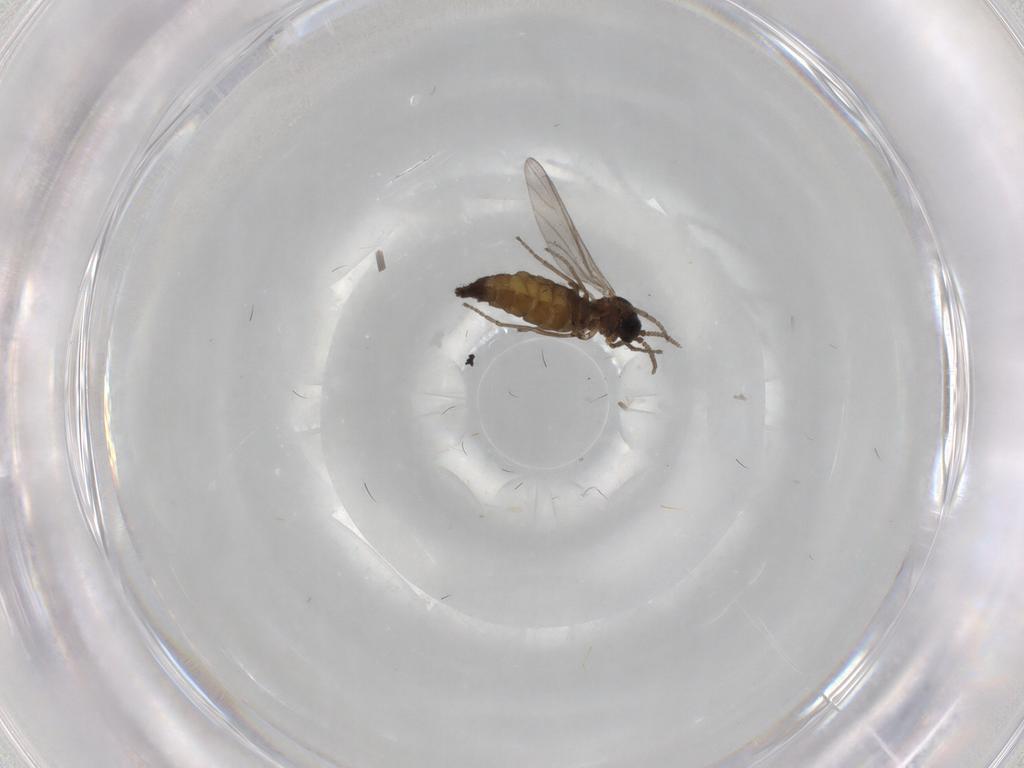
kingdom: Animalia
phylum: Arthropoda
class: Insecta
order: Diptera
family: Sciaridae
